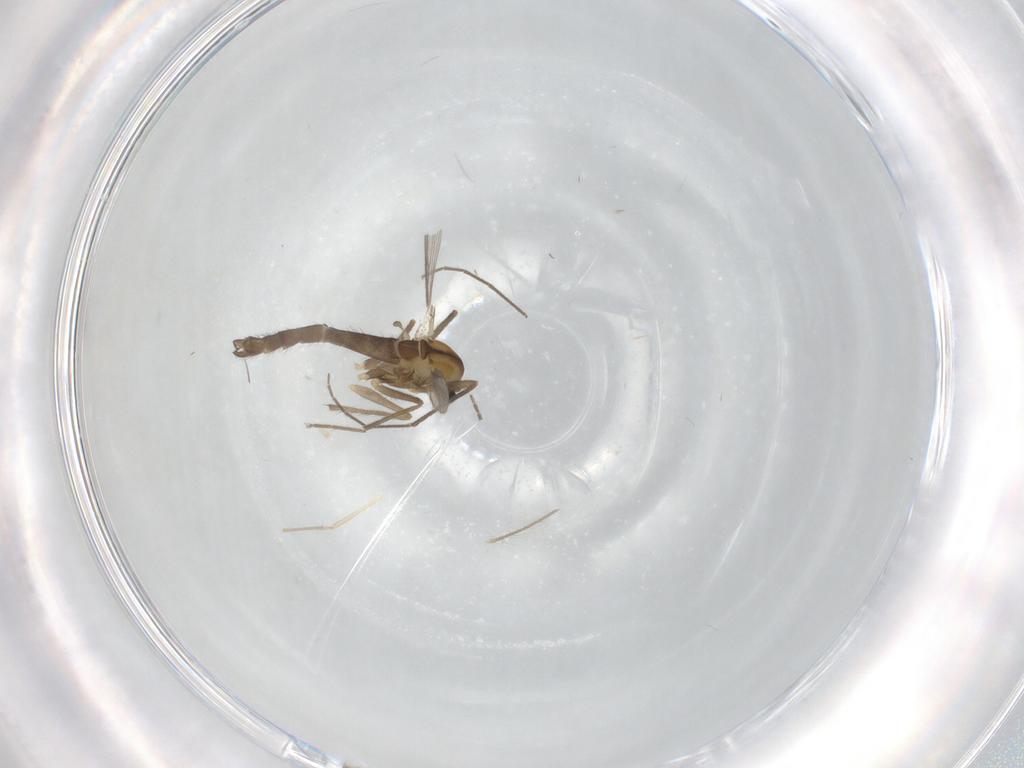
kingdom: Animalia
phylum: Arthropoda
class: Insecta
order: Diptera
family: Chironomidae
